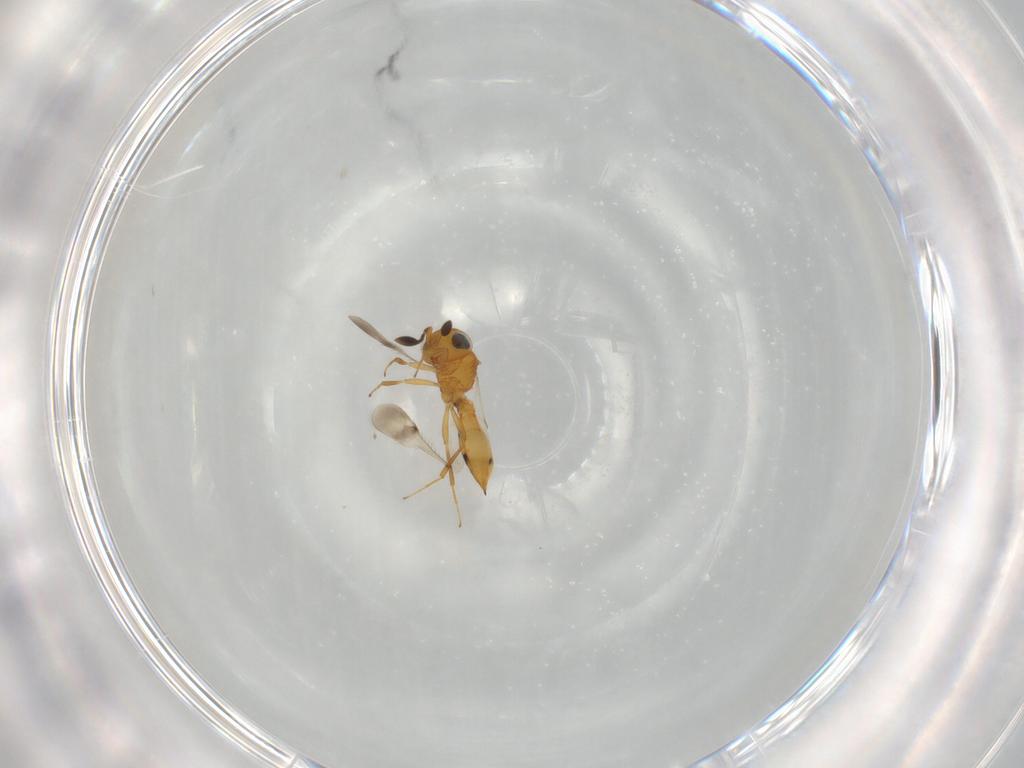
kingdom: Animalia
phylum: Arthropoda
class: Insecta
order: Hymenoptera
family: Scelionidae
